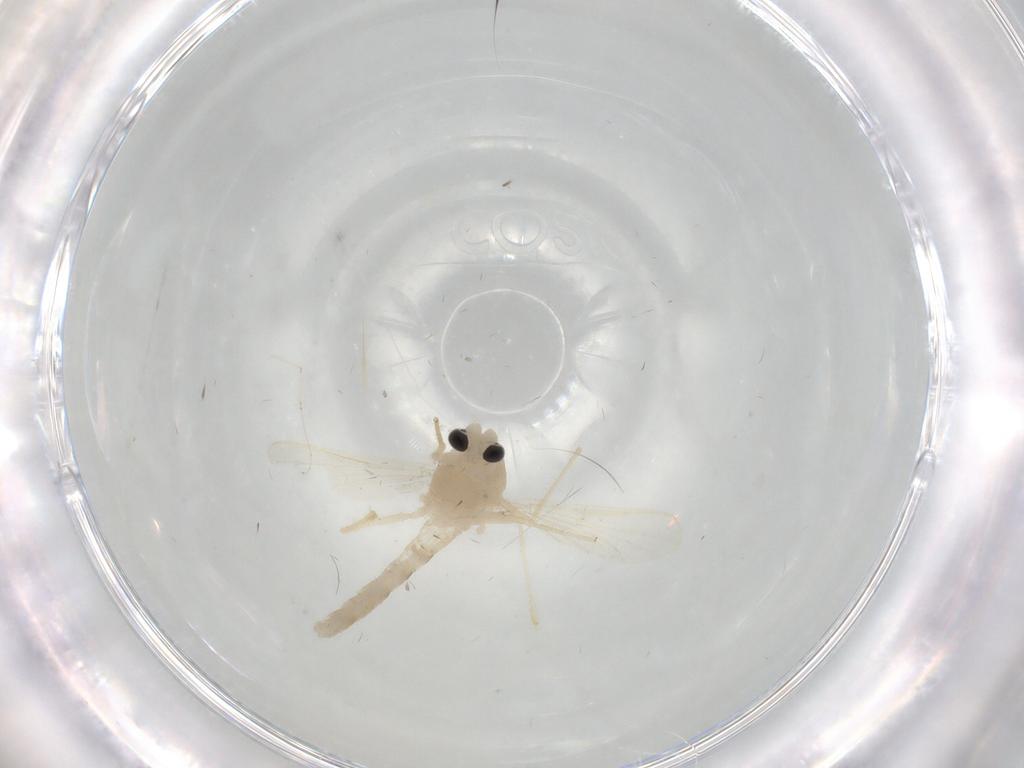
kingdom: Animalia
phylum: Arthropoda
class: Insecta
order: Diptera
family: Chironomidae
